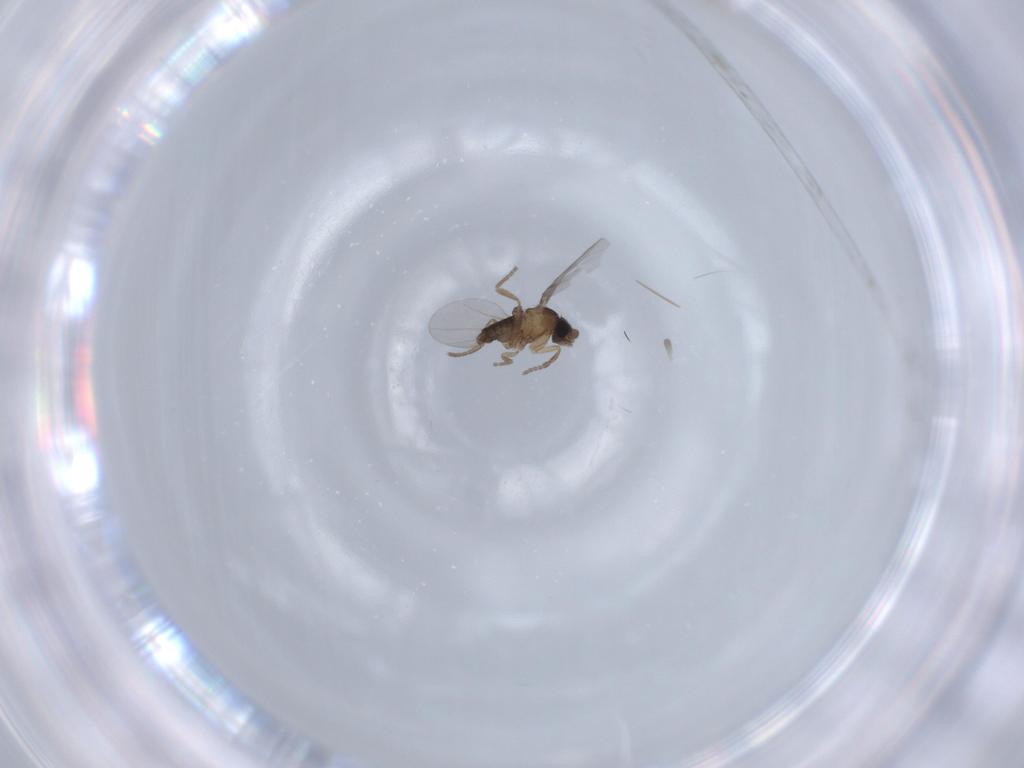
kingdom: Animalia
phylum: Arthropoda
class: Insecta
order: Diptera
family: Phoridae
